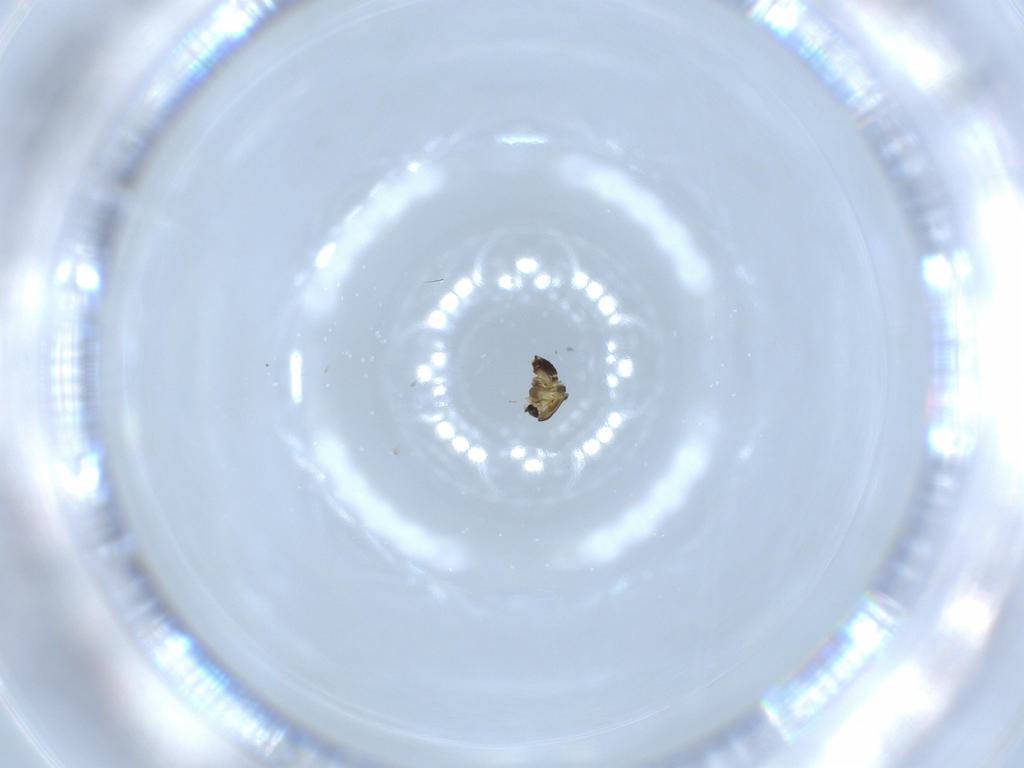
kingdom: Animalia
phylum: Arthropoda
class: Insecta
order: Diptera
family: Chironomidae
